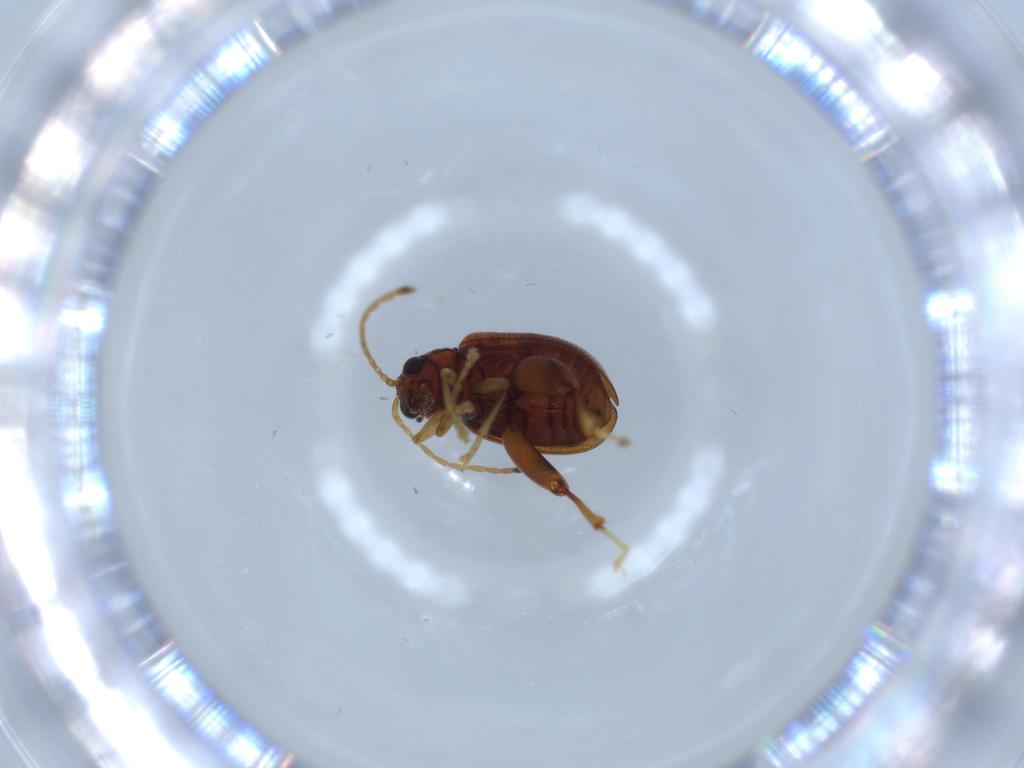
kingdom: Animalia
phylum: Arthropoda
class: Insecta
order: Coleoptera
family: Chrysomelidae
